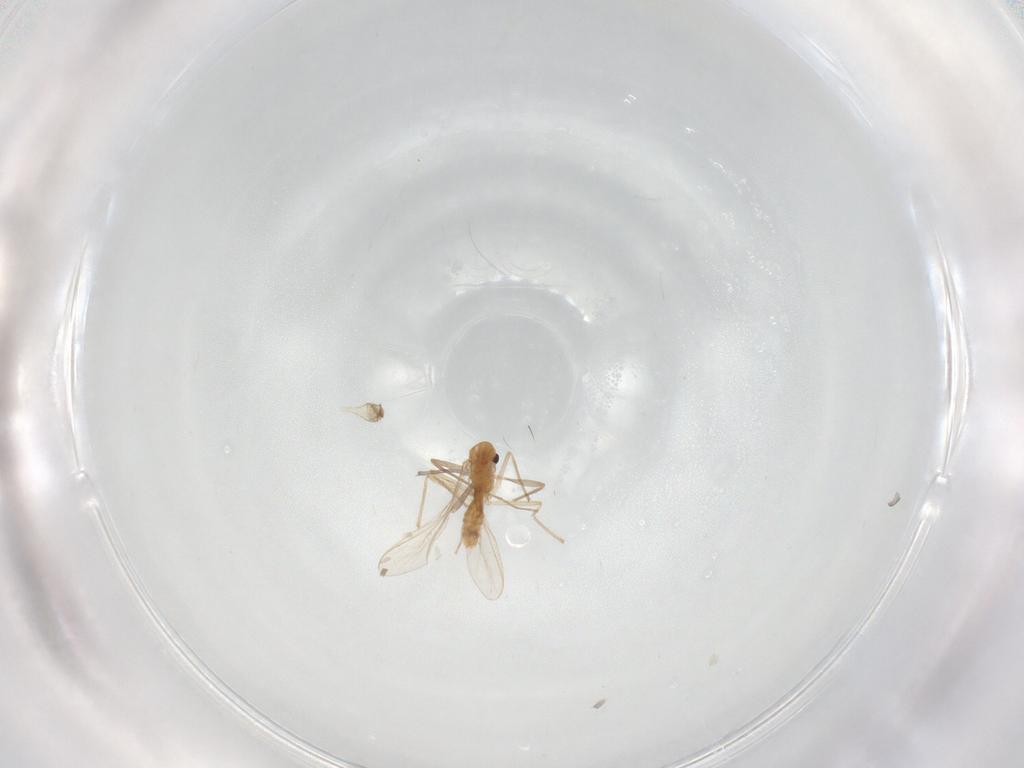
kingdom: Animalia
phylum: Arthropoda
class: Insecta
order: Diptera
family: Chironomidae
